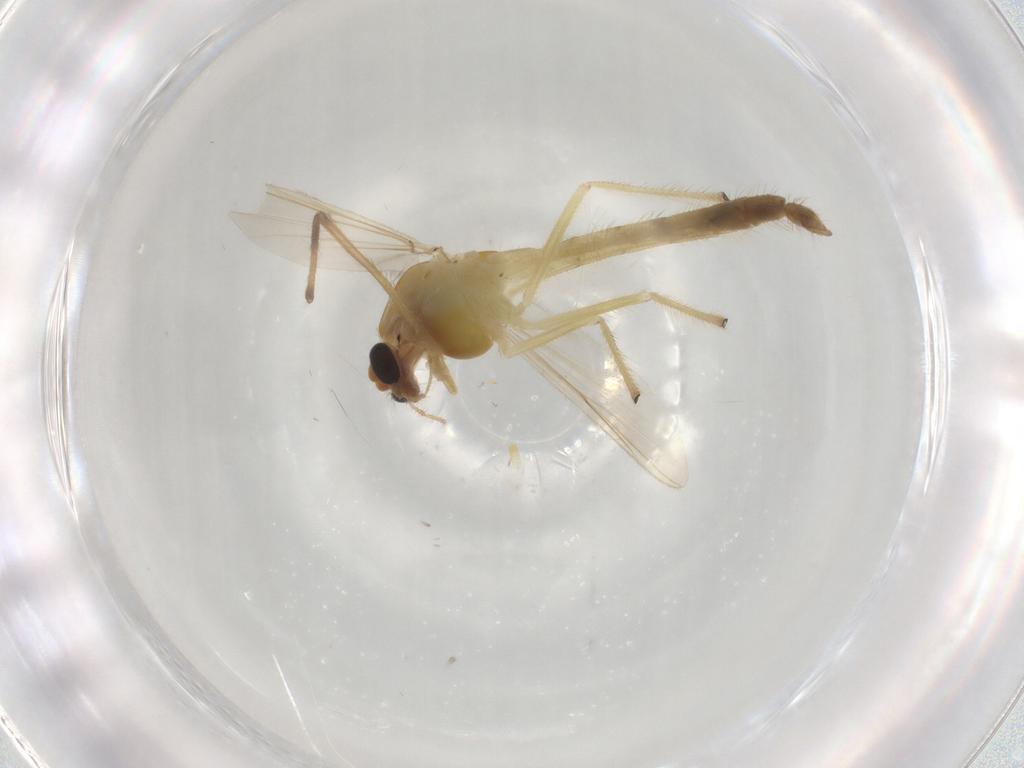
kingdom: Animalia
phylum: Arthropoda
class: Insecta
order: Diptera
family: Chironomidae
